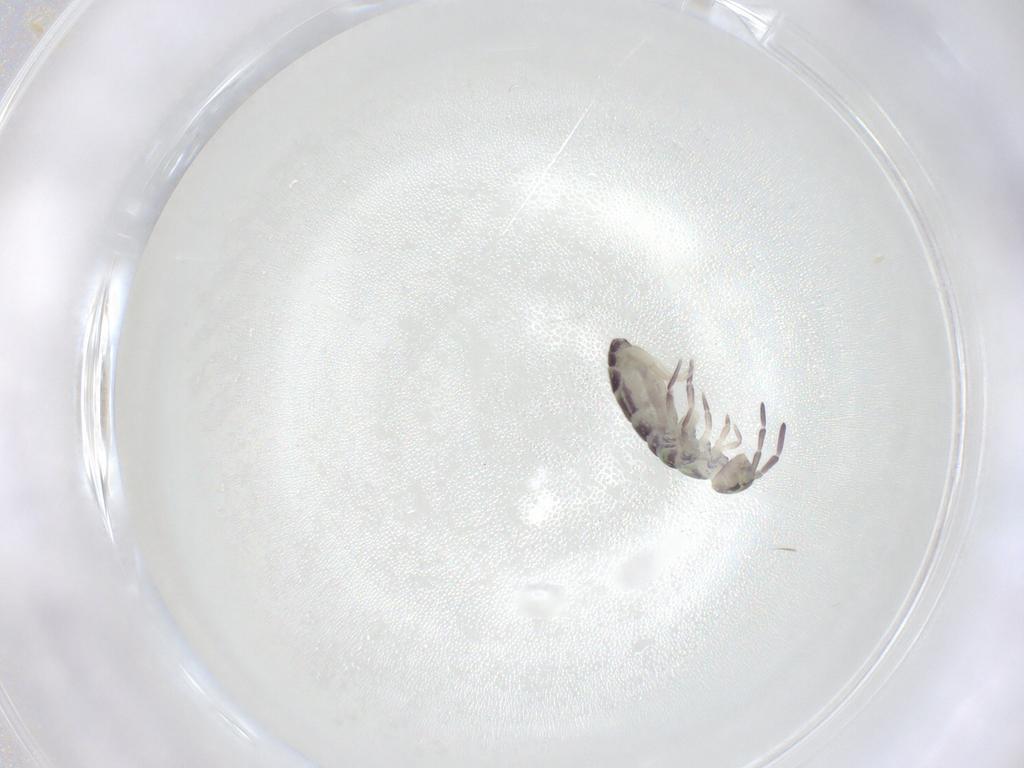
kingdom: Animalia
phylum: Arthropoda
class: Collembola
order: Entomobryomorpha
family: Isotomidae
